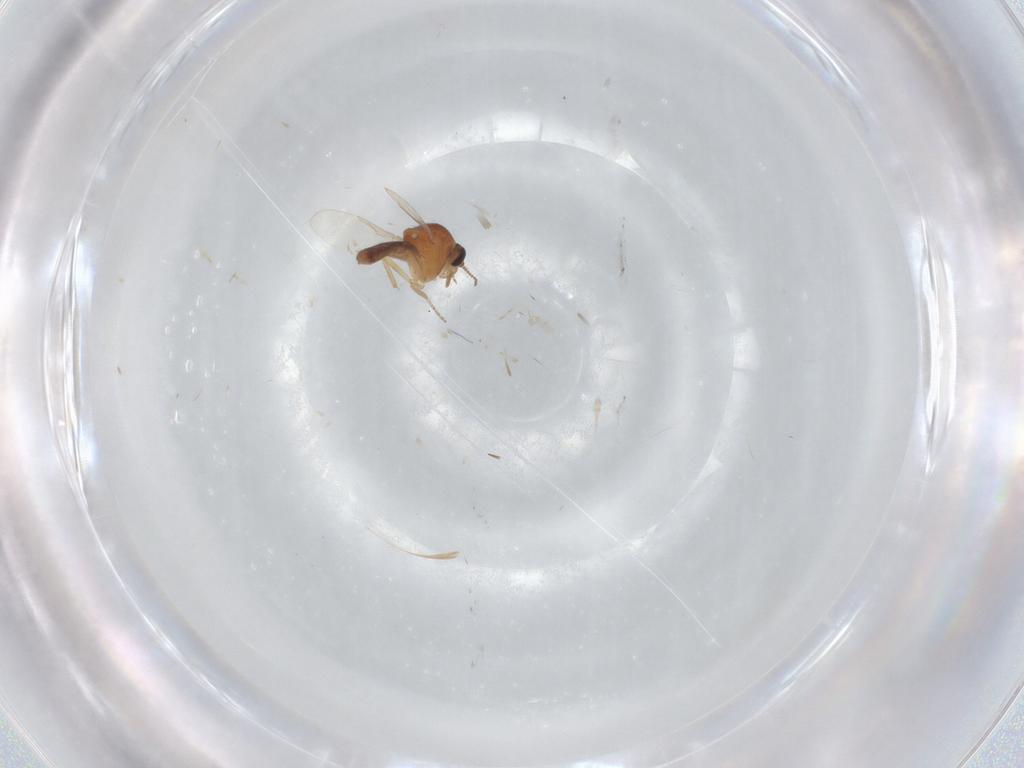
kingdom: Animalia
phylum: Arthropoda
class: Insecta
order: Diptera
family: Ceratopogonidae
